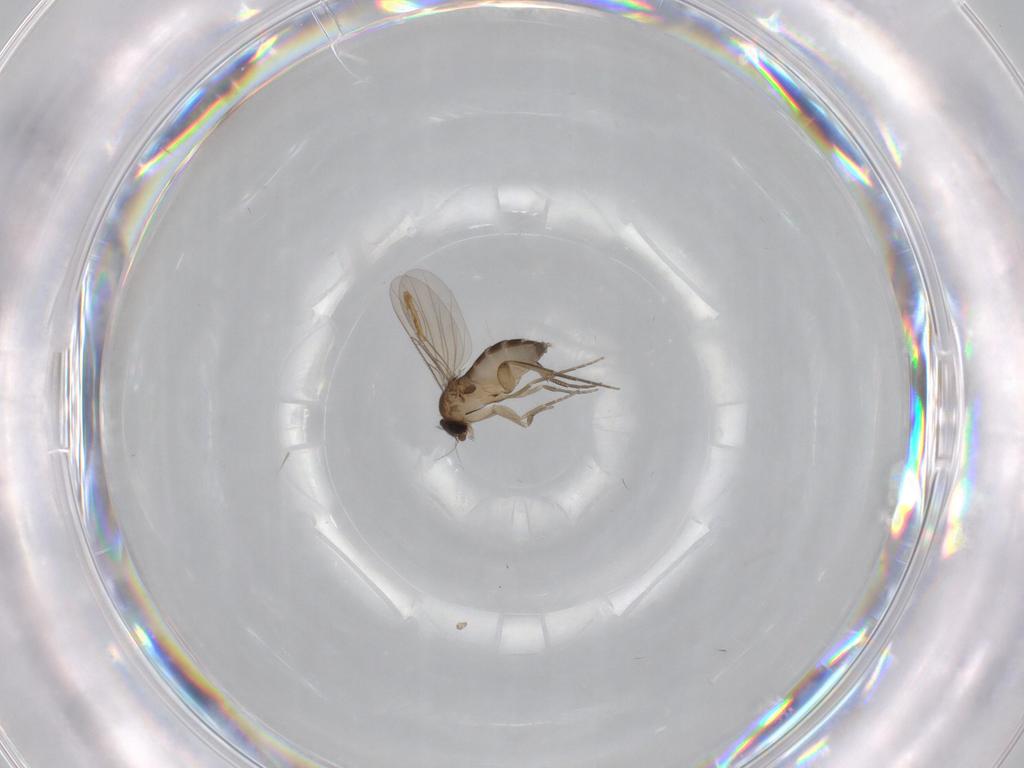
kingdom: Animalia
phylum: Arthropoda
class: Insecta
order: Diptera
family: Phoridae
